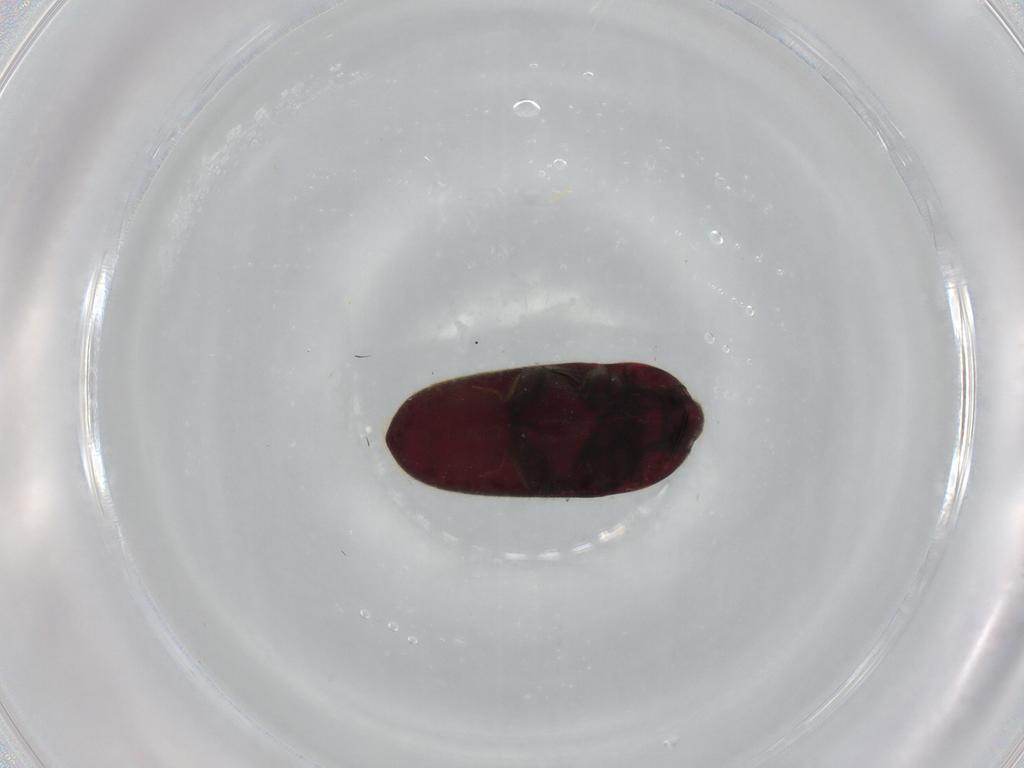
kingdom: Animalia
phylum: Arthropoda
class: Insecta
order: Coleoptera
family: Throscidae
